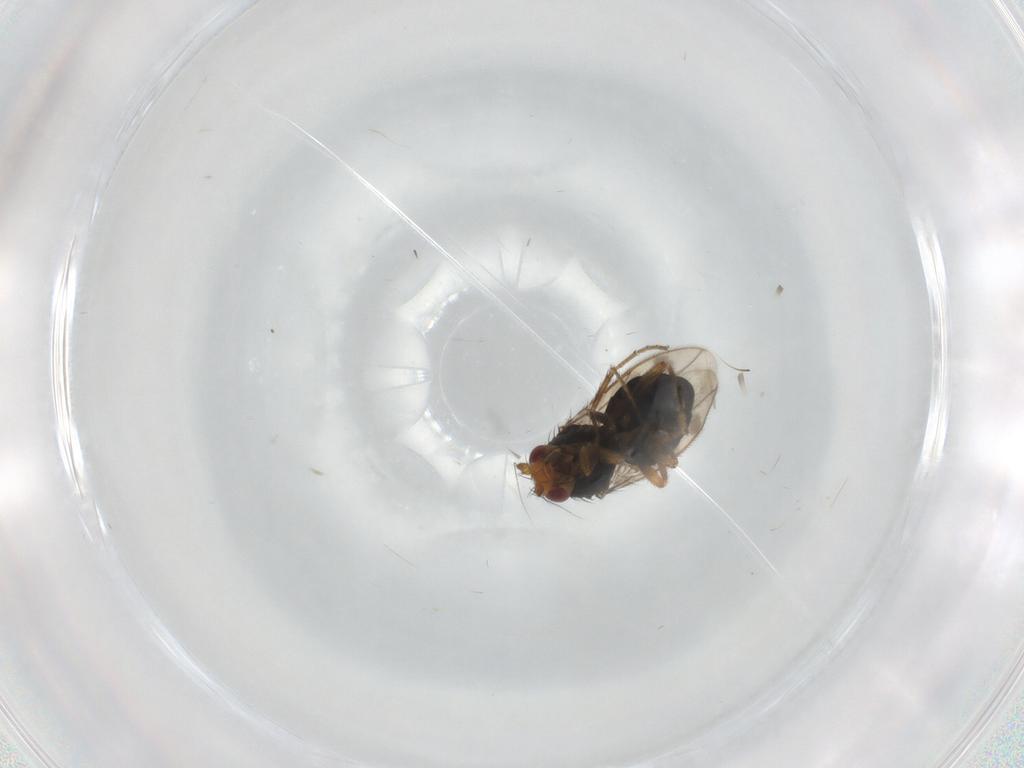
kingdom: Animalia
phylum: Arthropoda
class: Insecta
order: Diptera
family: Sphaeroceridae
